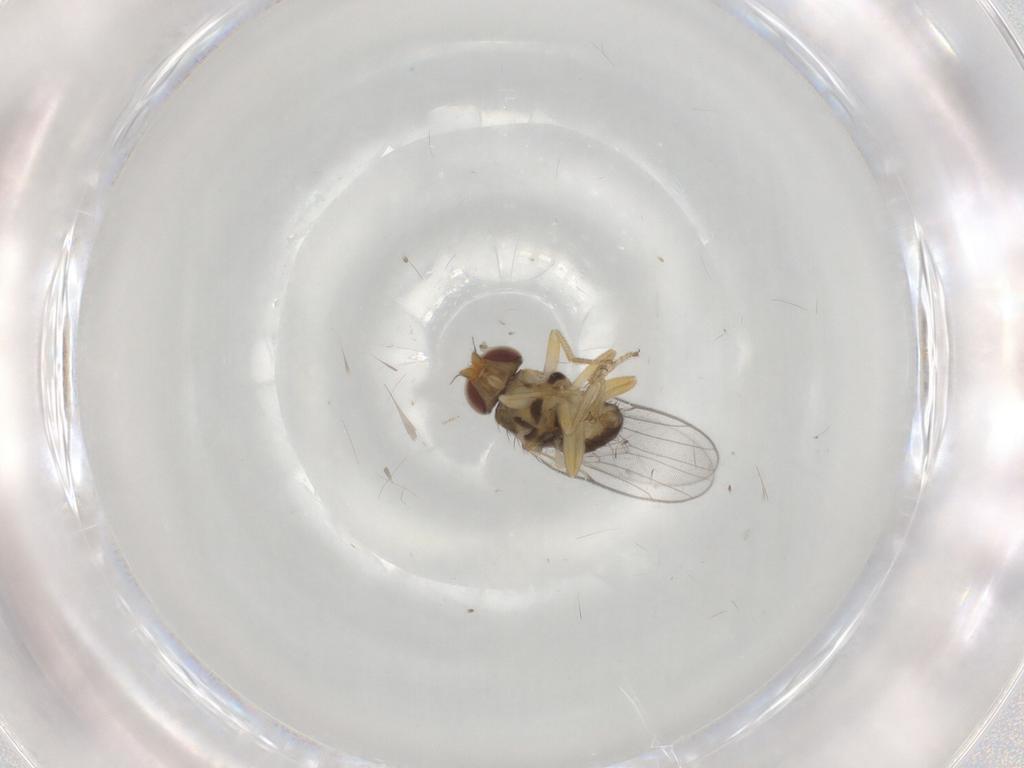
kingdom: Animalia
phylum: Arthropoda
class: Insecta
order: Diptera
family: Chloropidae
